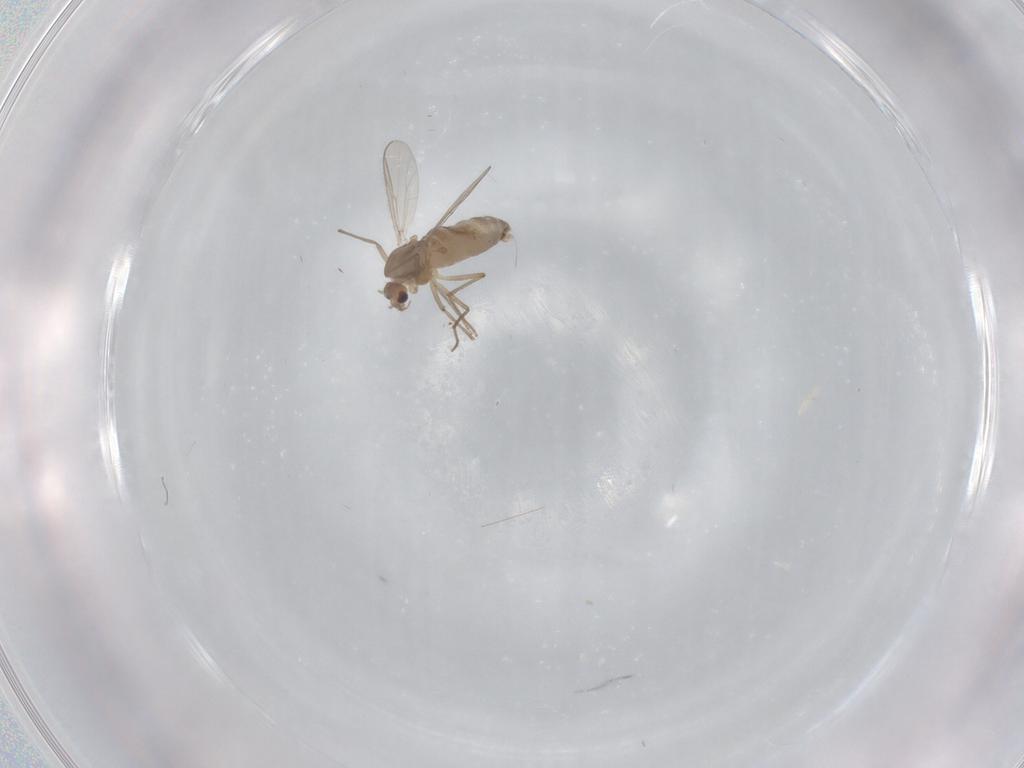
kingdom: Animalia
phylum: Arthropoda
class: Insecta
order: Diptera
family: Chironomidae
